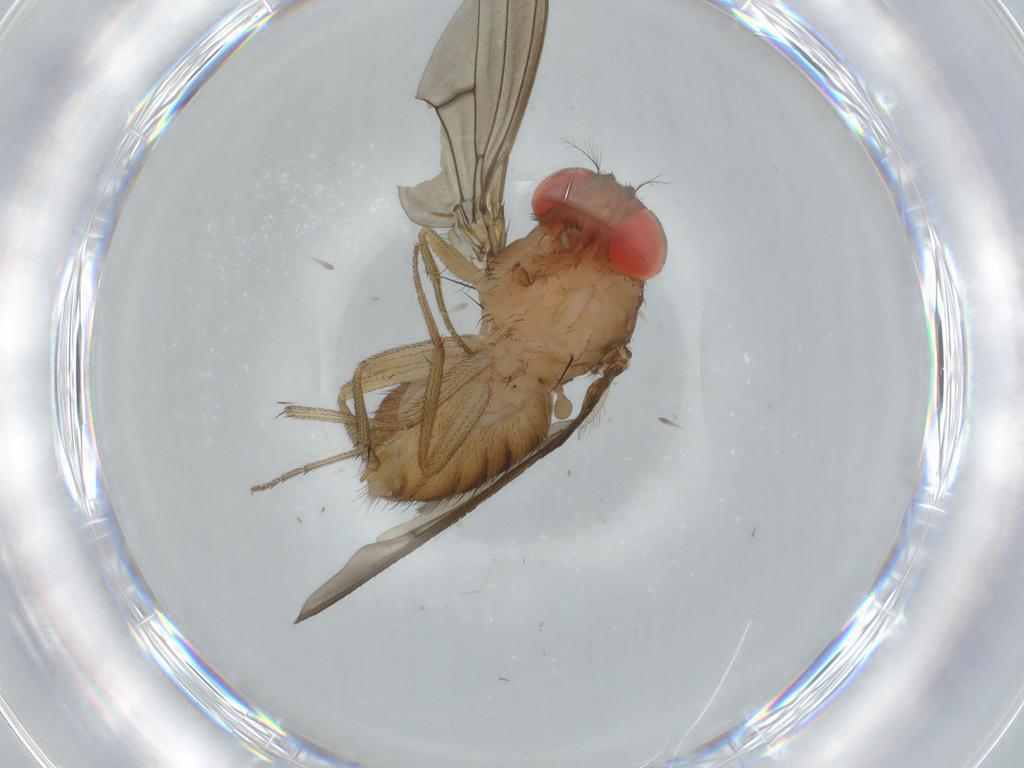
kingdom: Animalia
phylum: Arthropoda
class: Insecta
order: Diptera
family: Drosophilidae
